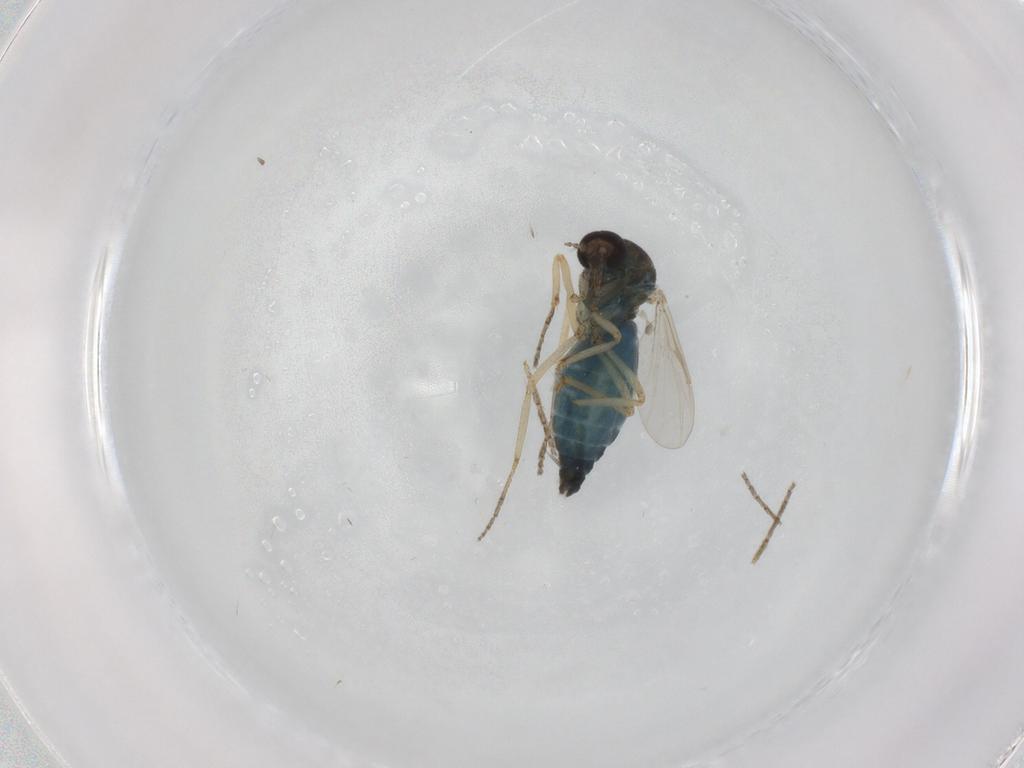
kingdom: Animalia
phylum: Arthropoda
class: Insecta
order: Diptera
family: Ceratopogonidae
